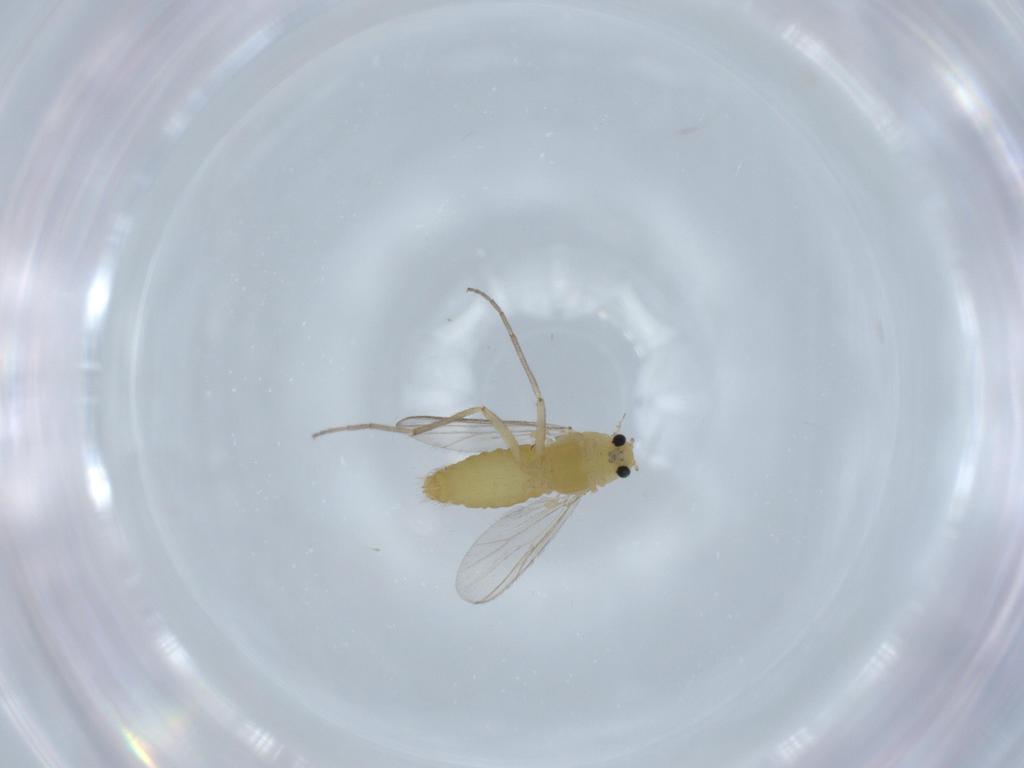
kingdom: Animalia
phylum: Arthropoda
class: Insecta
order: Diptera
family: Chironomidae
